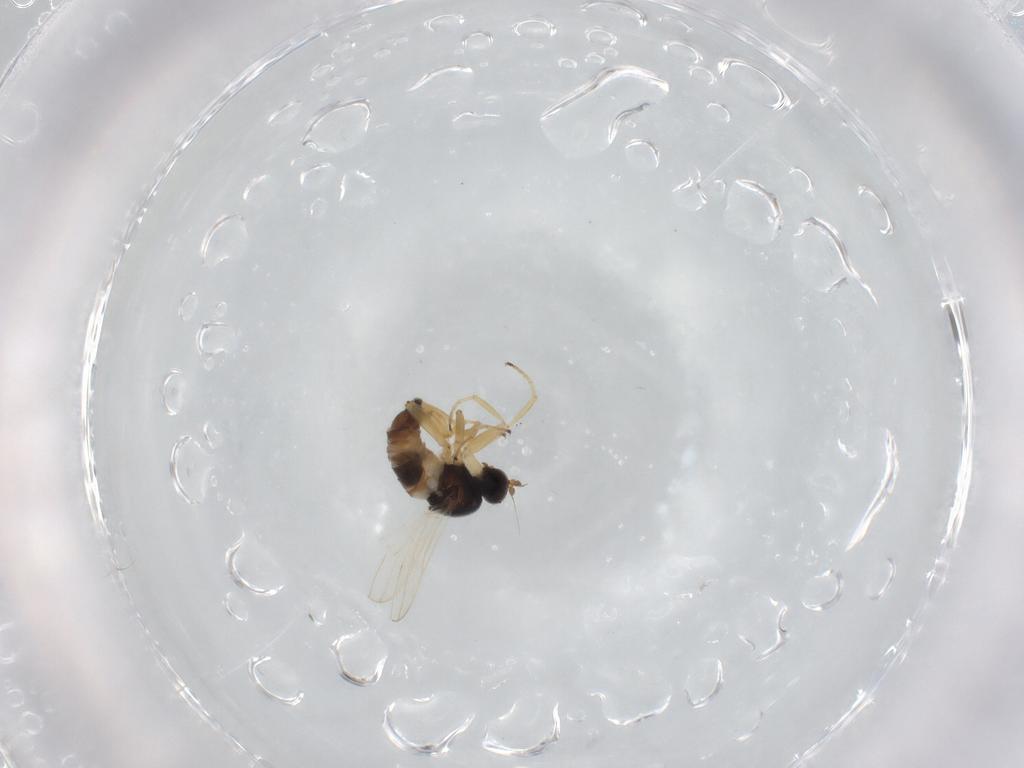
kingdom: Animalia
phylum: Arthropoda
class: Insecta
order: Diptera
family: Hybotidae
